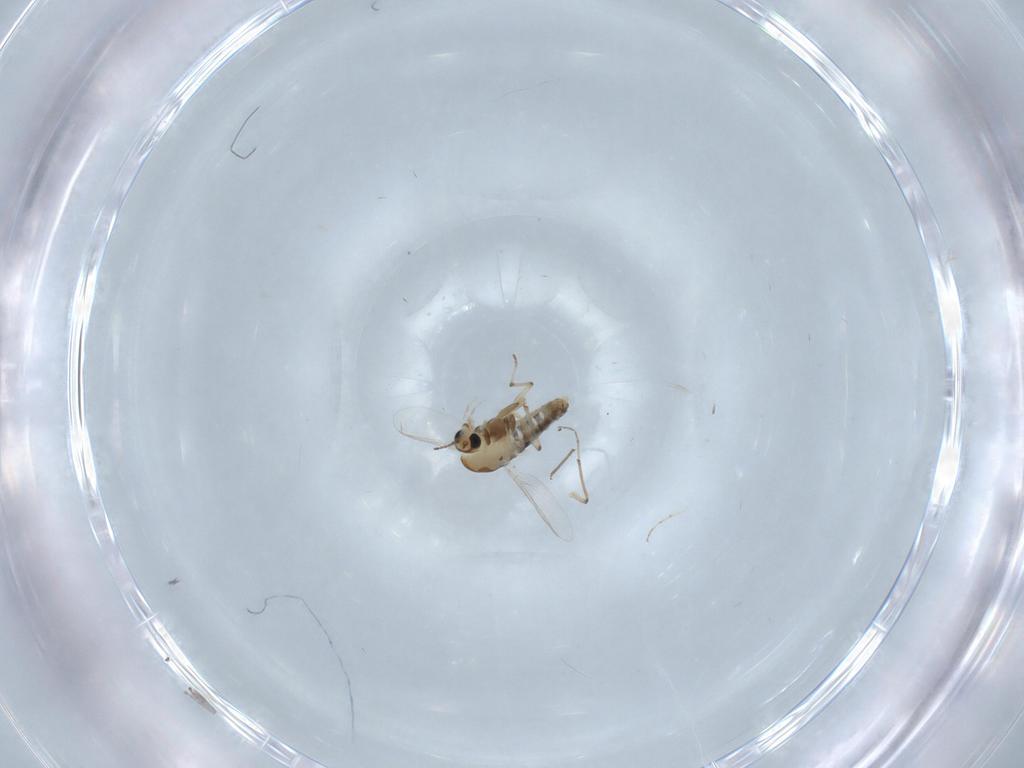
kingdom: Animalia
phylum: Arthropoda
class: Insecta
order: Diptera
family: Chironomidae
